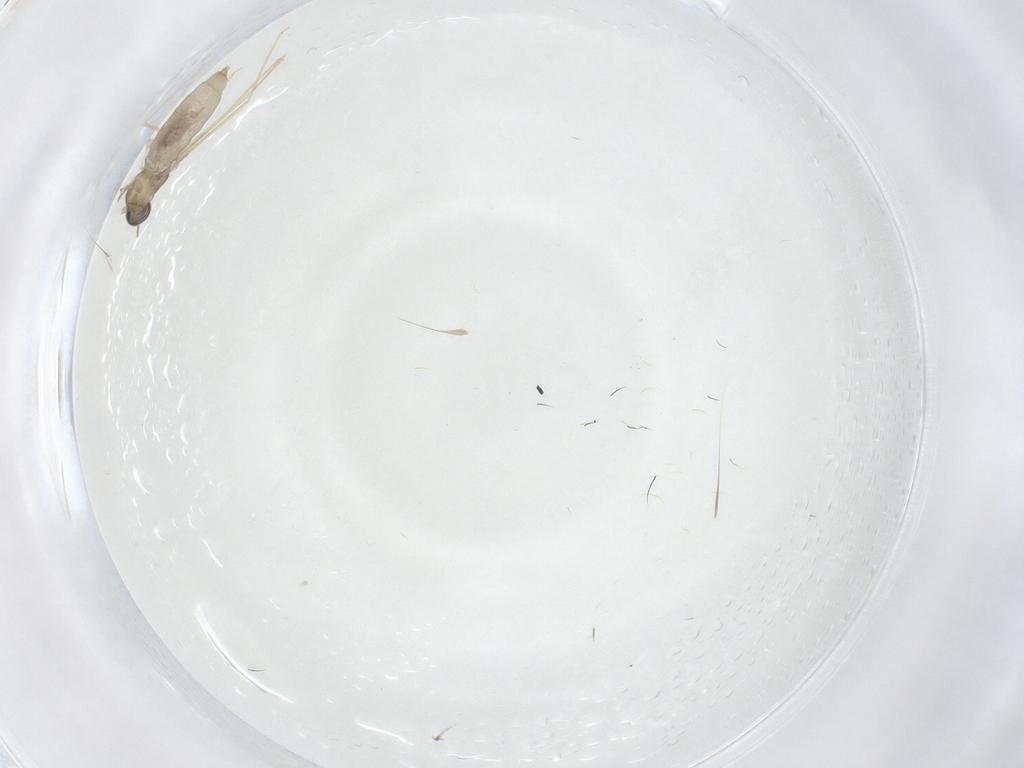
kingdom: Animalia
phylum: Arthropoda
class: Insecta
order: Diptera
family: Cecidomyiidae
